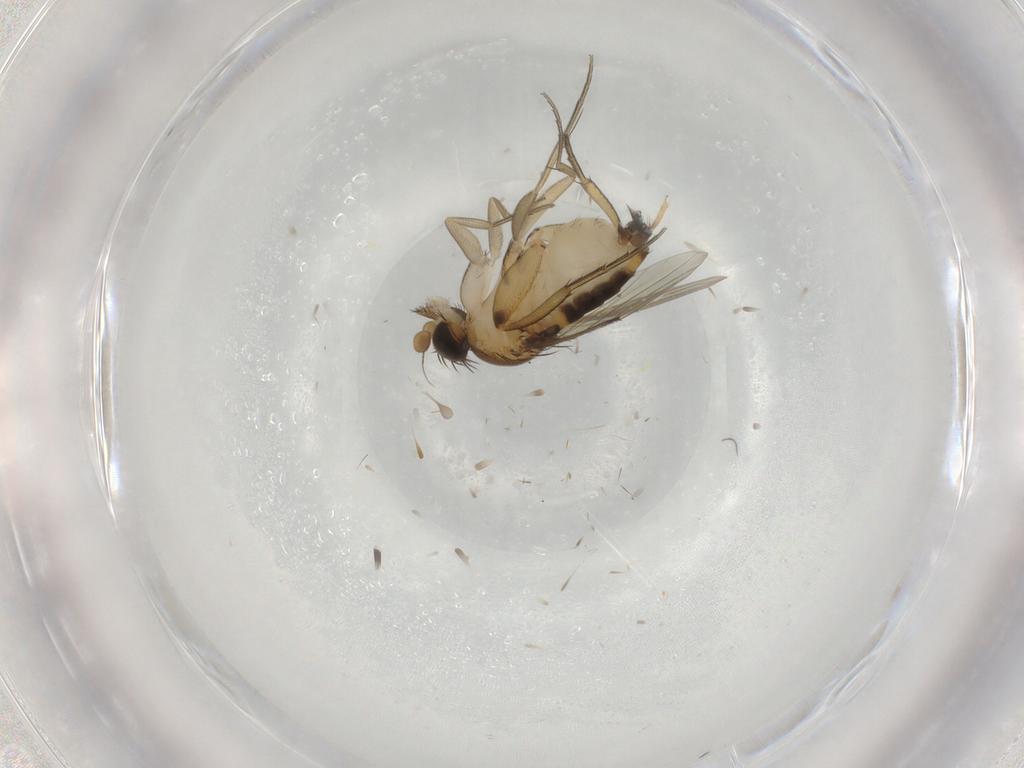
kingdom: Animalia
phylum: Arthropoda
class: Insecta
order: Diptera
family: Phoridae
